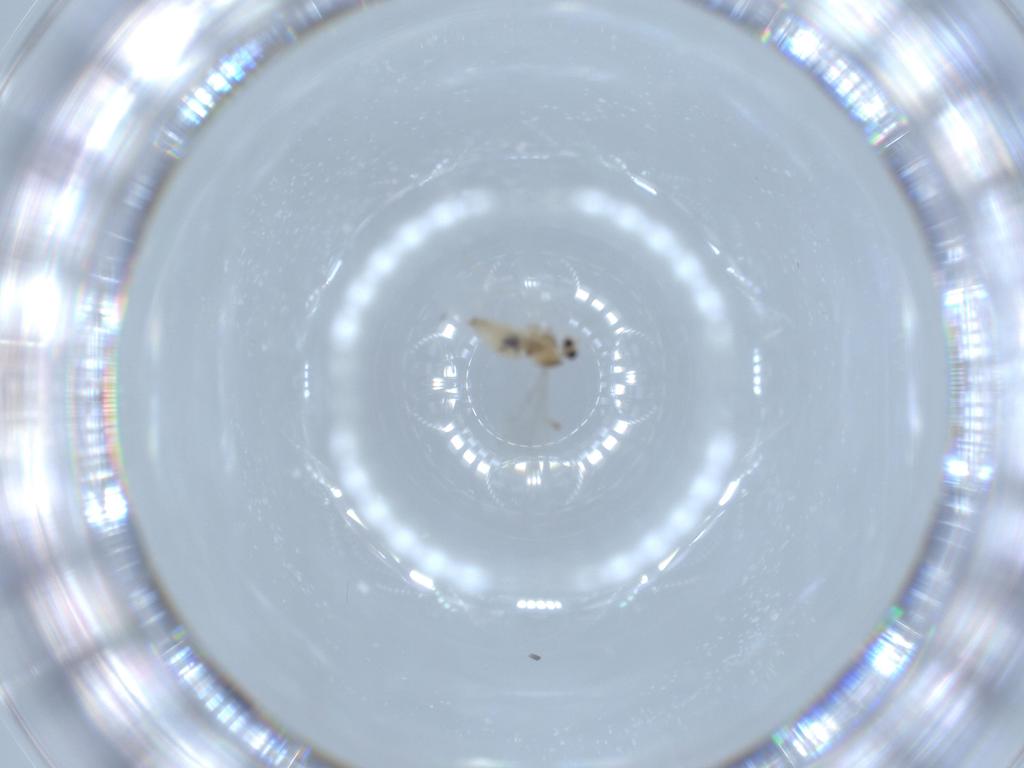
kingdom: Animalia
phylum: Arthropoda
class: Insecta
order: Diptera
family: Cecidomyiidae
